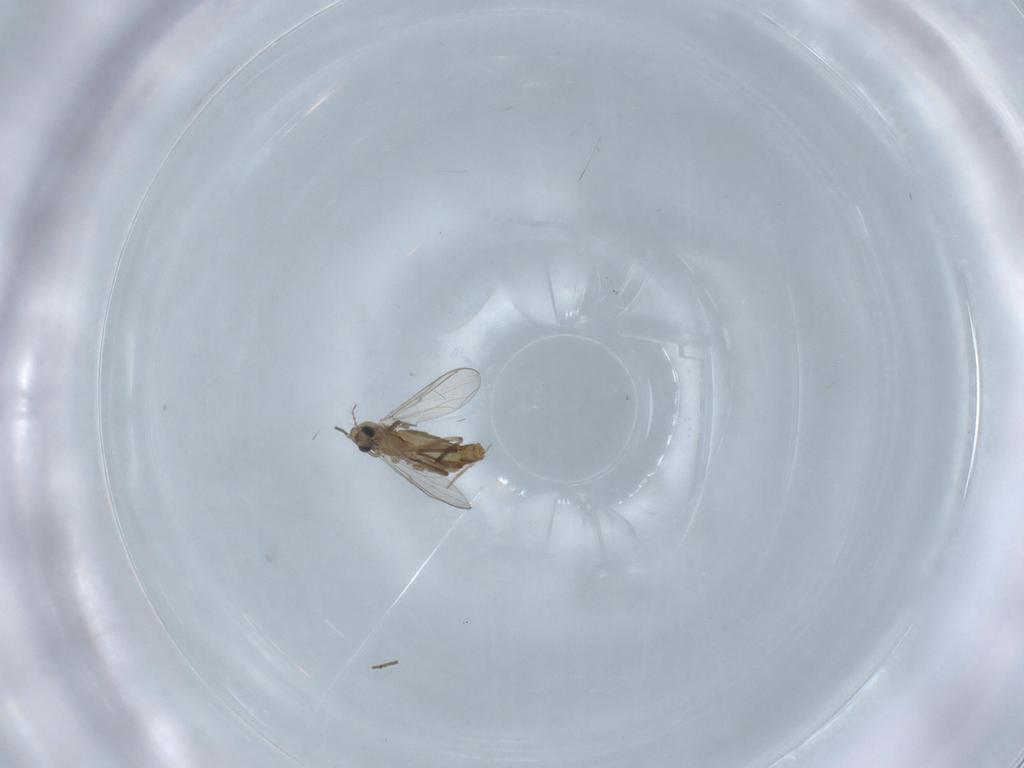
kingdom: Animalia
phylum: Arthropoda
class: Insecta
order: Diptera
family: Chironomidae
